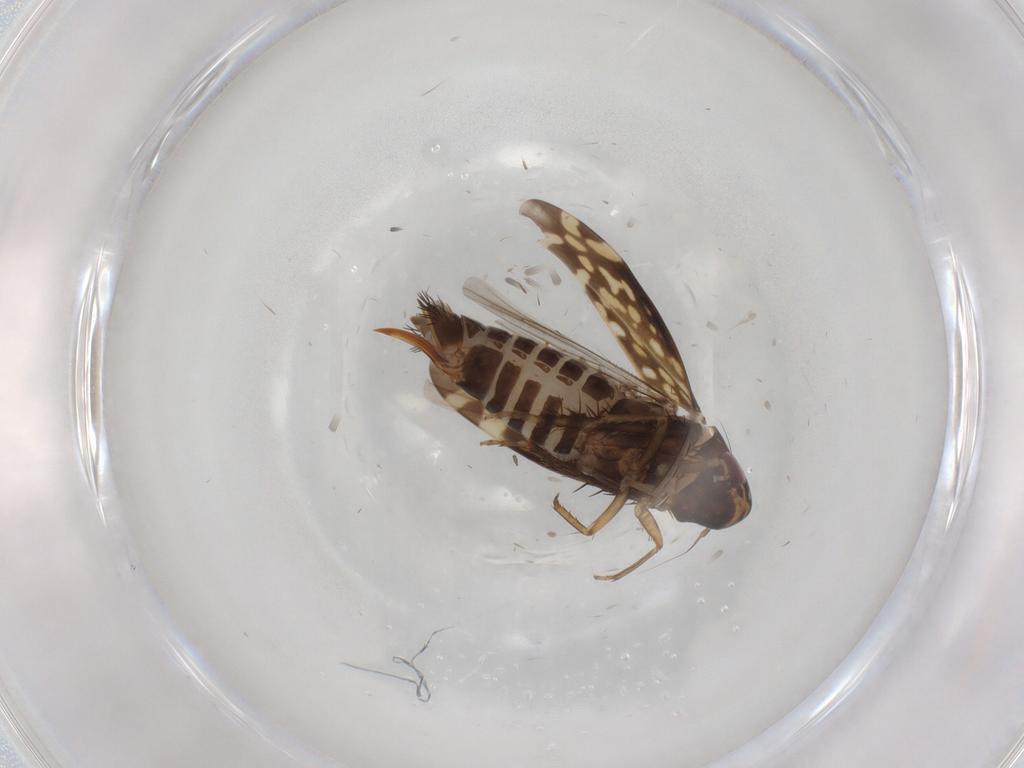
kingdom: Animalia
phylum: Arthropoda
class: Insecta
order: Hemiptera
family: Cicadellidae
